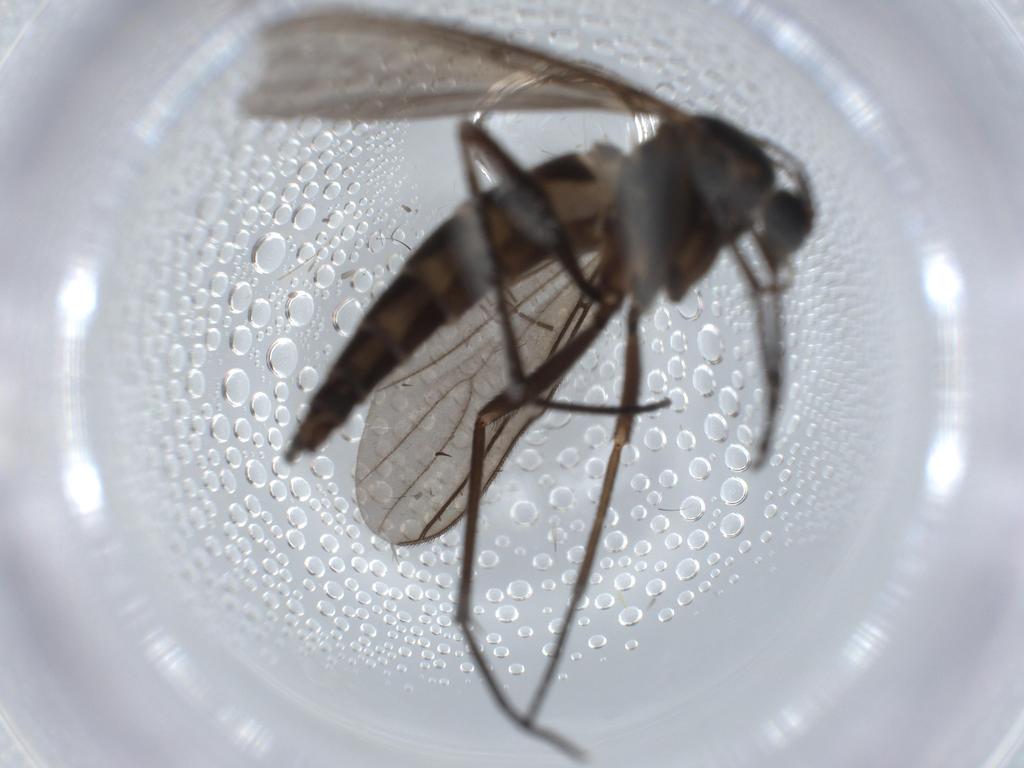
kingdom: Animalia
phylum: Arthropoda
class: Insecta
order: Diptera
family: Sciaridae
